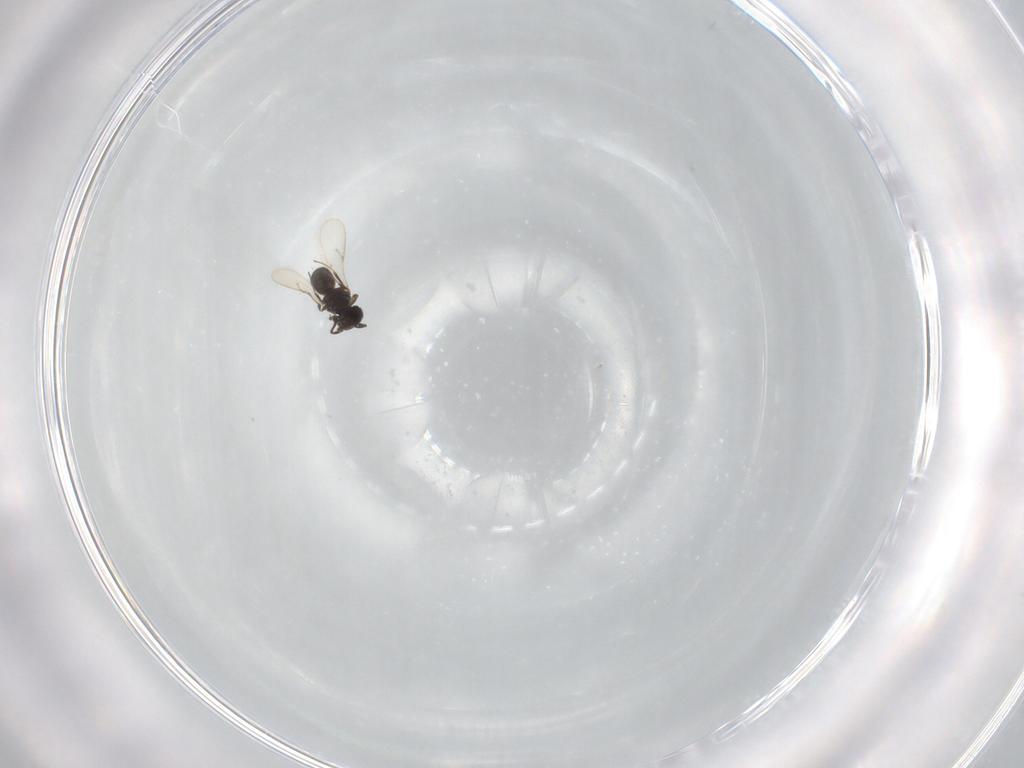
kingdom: Animalia
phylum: Arthropoda
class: Insecta
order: Hymenoptera
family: Scelionidae
